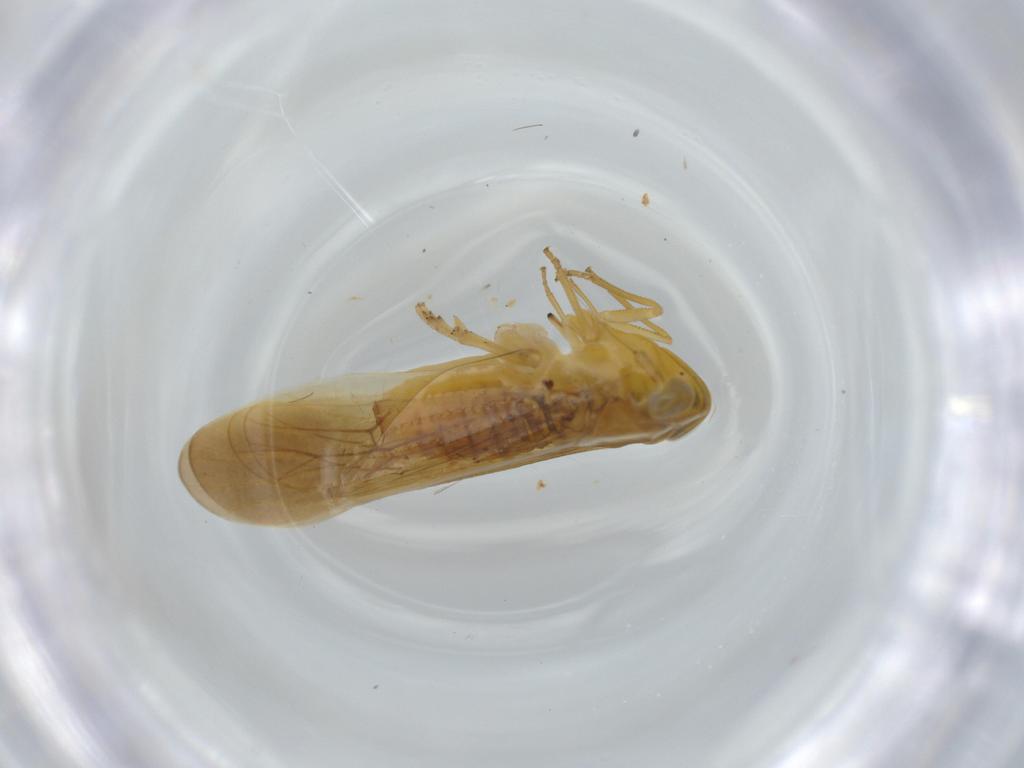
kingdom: Animalia
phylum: Arthropoda
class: Insecta
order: Hemiptera
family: Delphacidae
